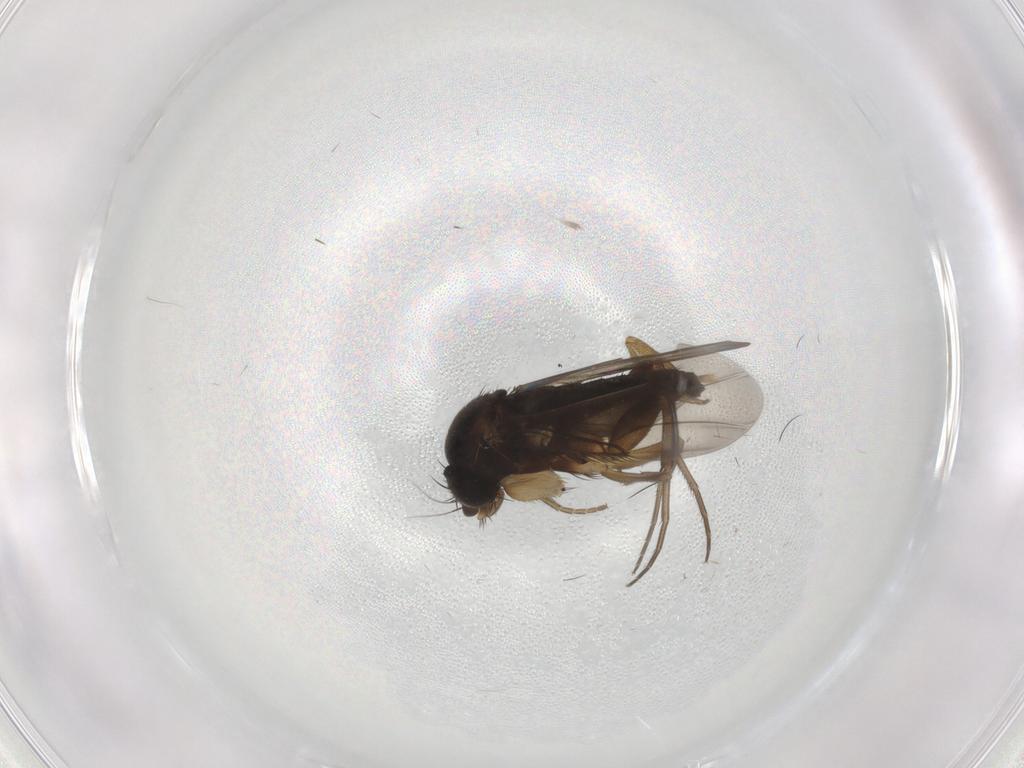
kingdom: Animalia
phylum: Arthropoda
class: Insecta
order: Diptera
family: Phoridae
